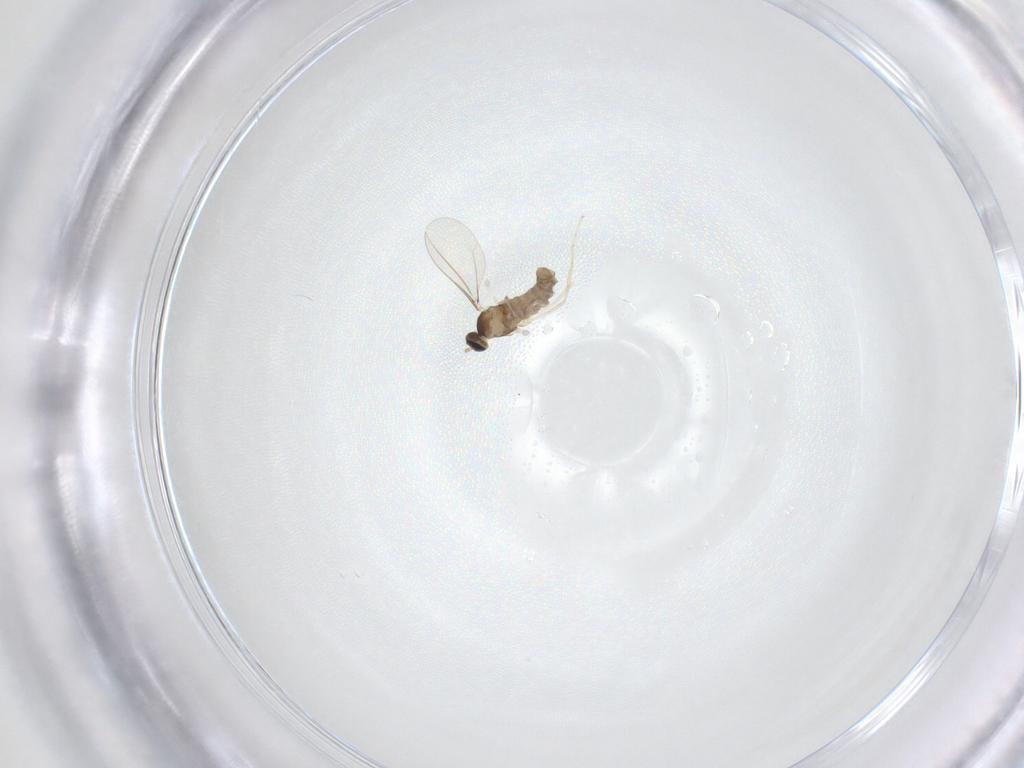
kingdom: Animalia
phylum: Arthropoda
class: Insecta
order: Diptera
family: Cecidomyiidae
